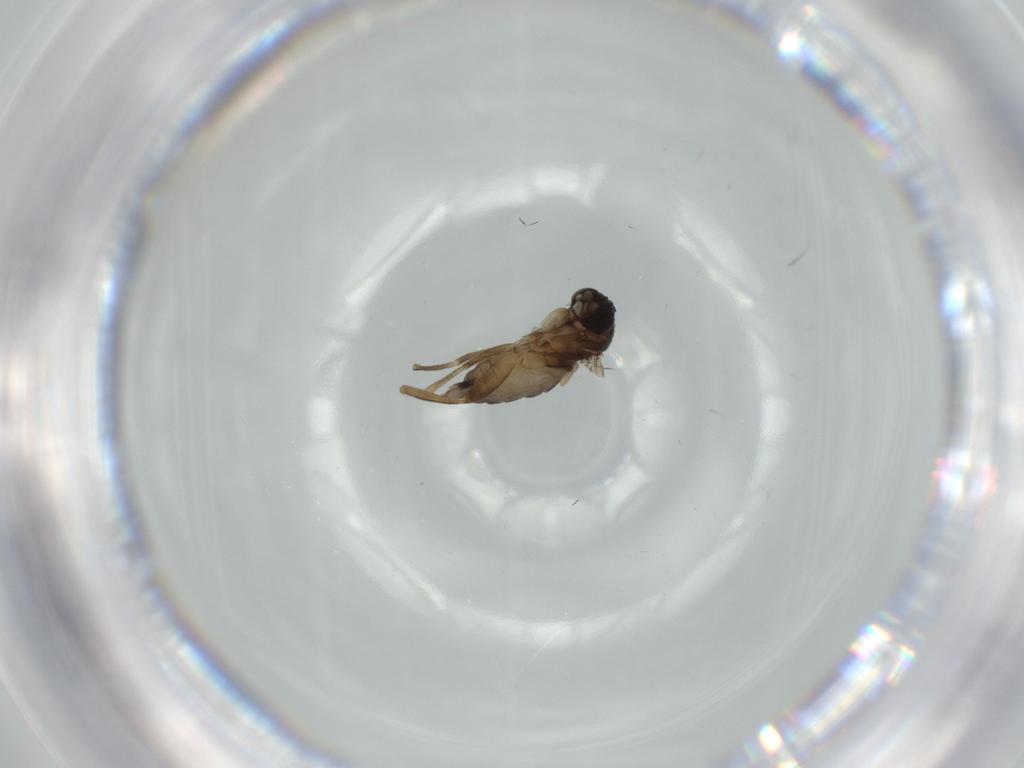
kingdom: Animalia
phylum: Arthropoda
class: Insecta
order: Diptera
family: Phoridae
